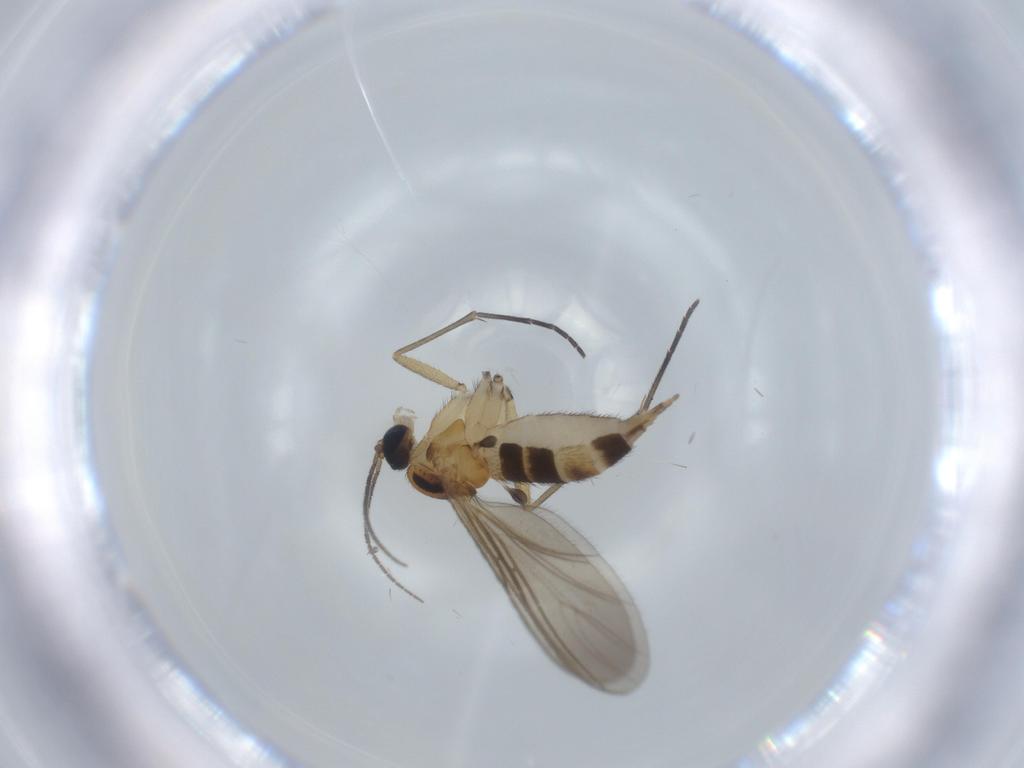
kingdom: Animalia
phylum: Arthropoda
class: Insecta
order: Diptera
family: Sciaridae
